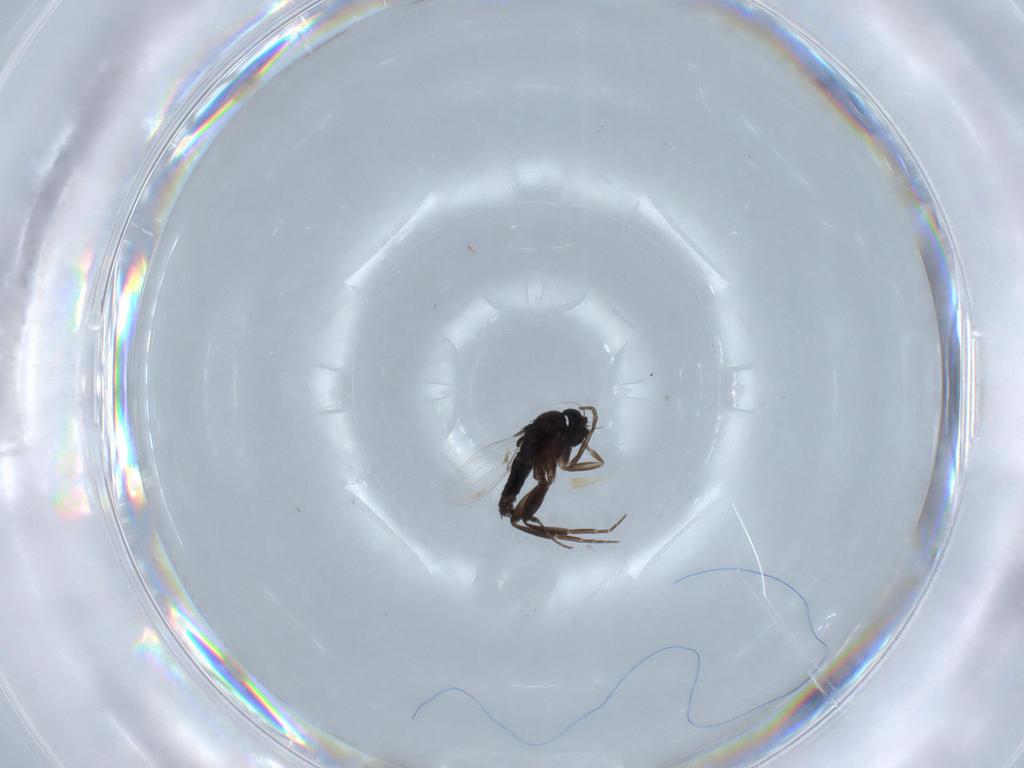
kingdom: Animalia
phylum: Arthropoda
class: Insecta
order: Diptera
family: Phoridae
